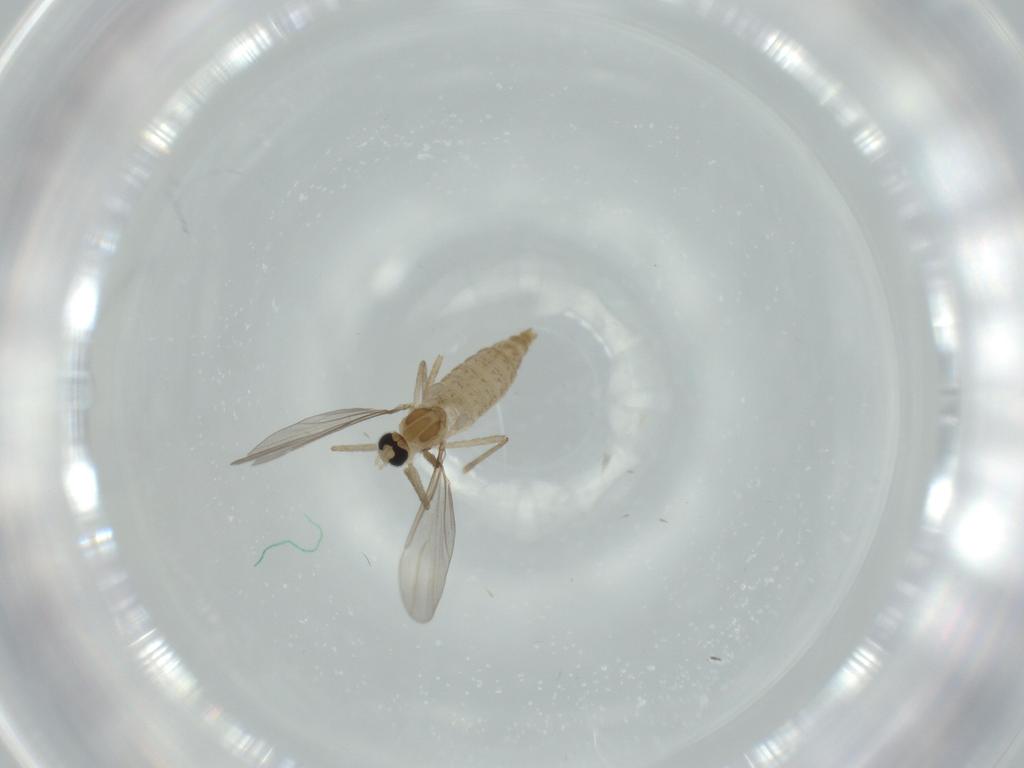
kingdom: Animalia
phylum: Arthropoda
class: Insecta
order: Diptera
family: Cecidomyiidae
